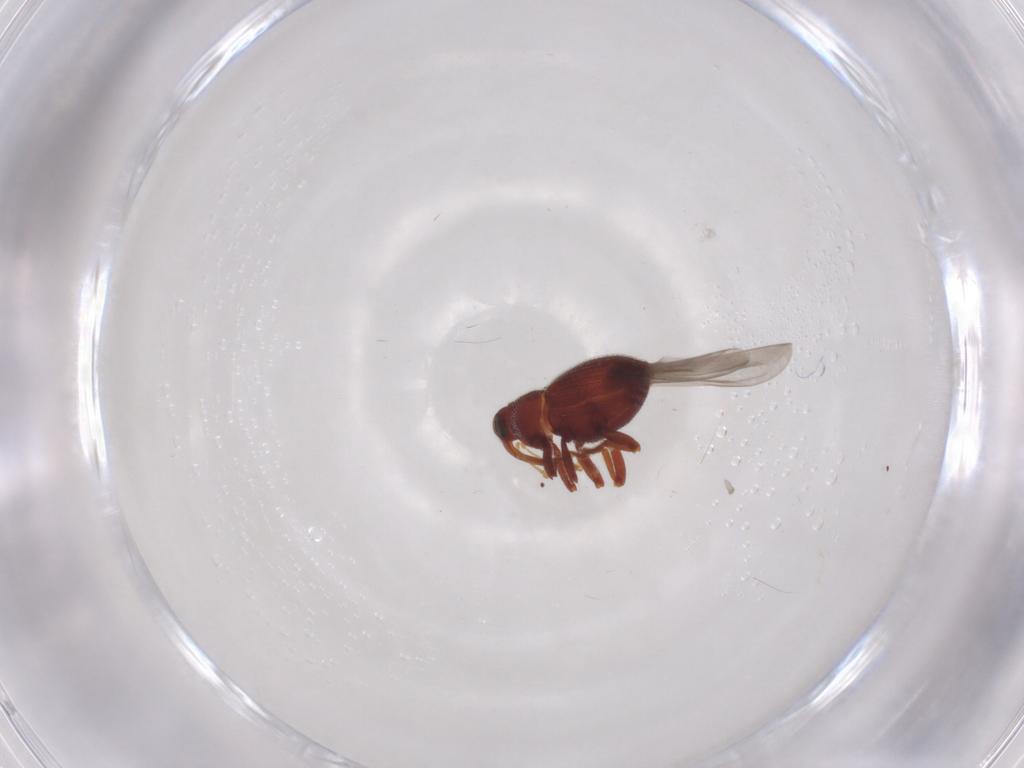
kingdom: Animalia
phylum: Arthropoda
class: Insecta
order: Coleoptera
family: Curculionidae
